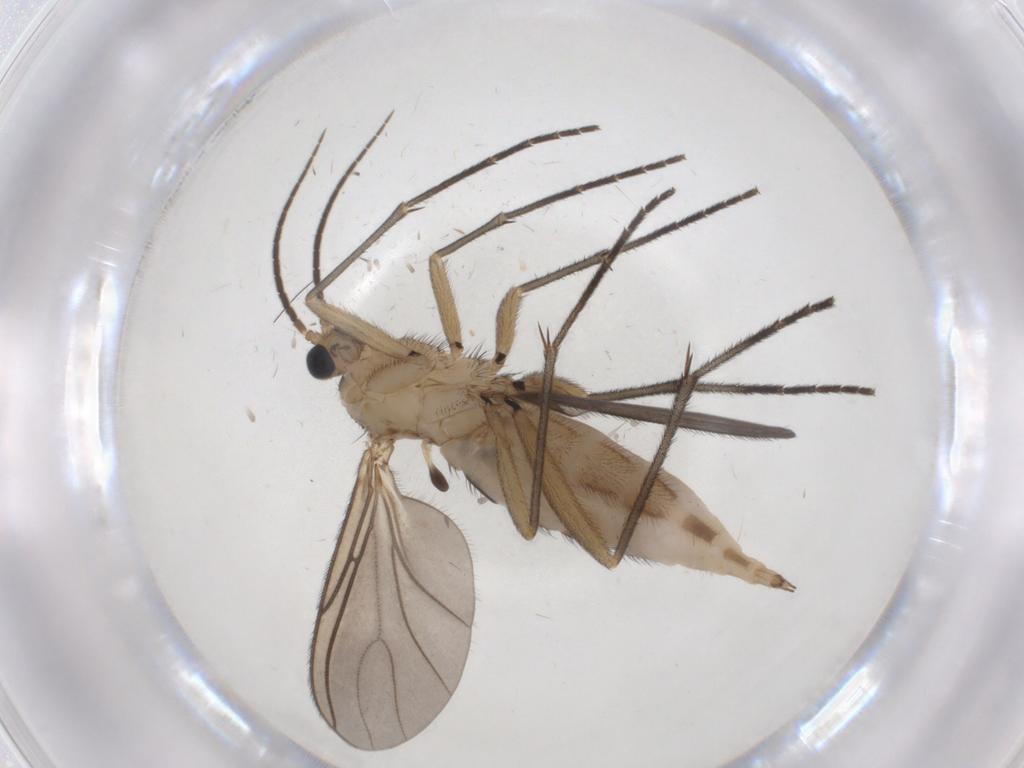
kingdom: Animalia
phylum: Arthropoda
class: Insecta
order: Diptera
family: Sciaridae
